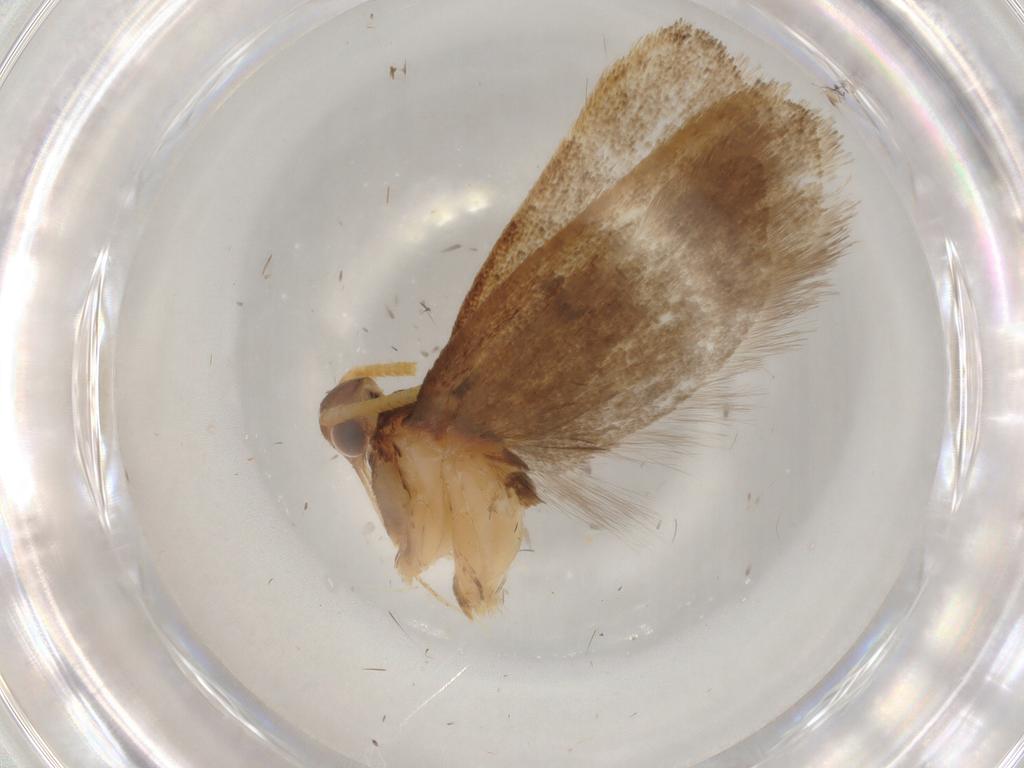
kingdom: Animalia
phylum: Arthropoda
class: Insecta
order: Lepidoptera
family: Lecithoceridae
